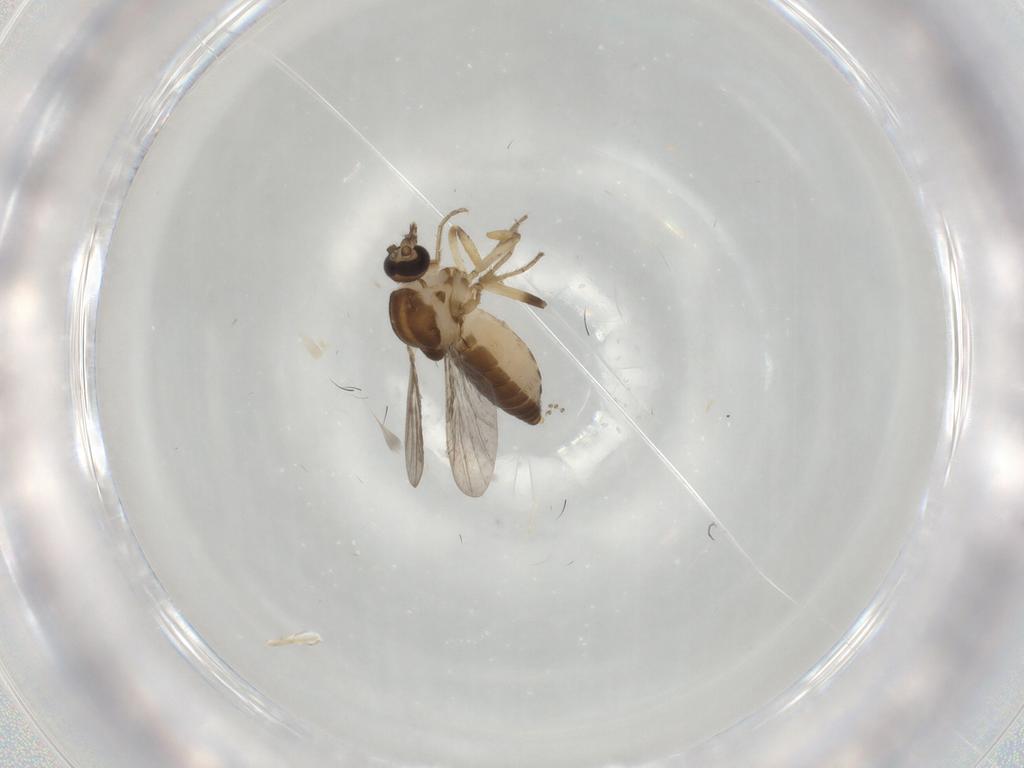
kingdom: Animalia
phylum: Arthropoda
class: Insecta
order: Diptera
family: Ceratopogonidae
